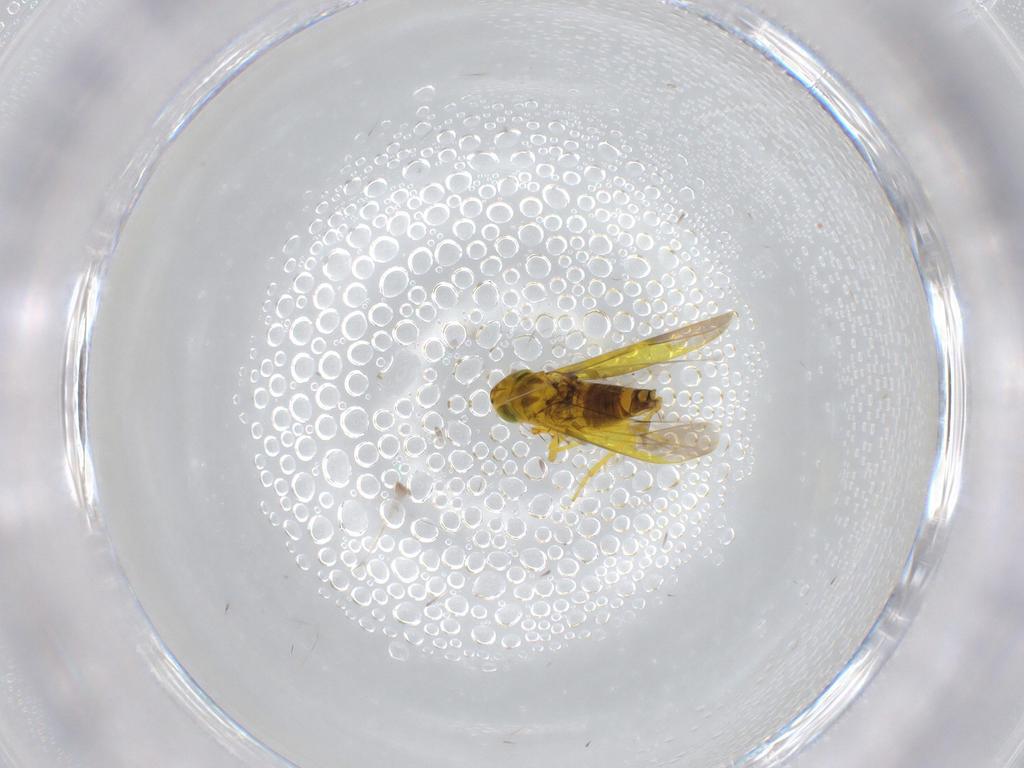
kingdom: Animalia
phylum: Arthropoda
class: Insecta
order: Hemiptera
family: Cicadellidae
